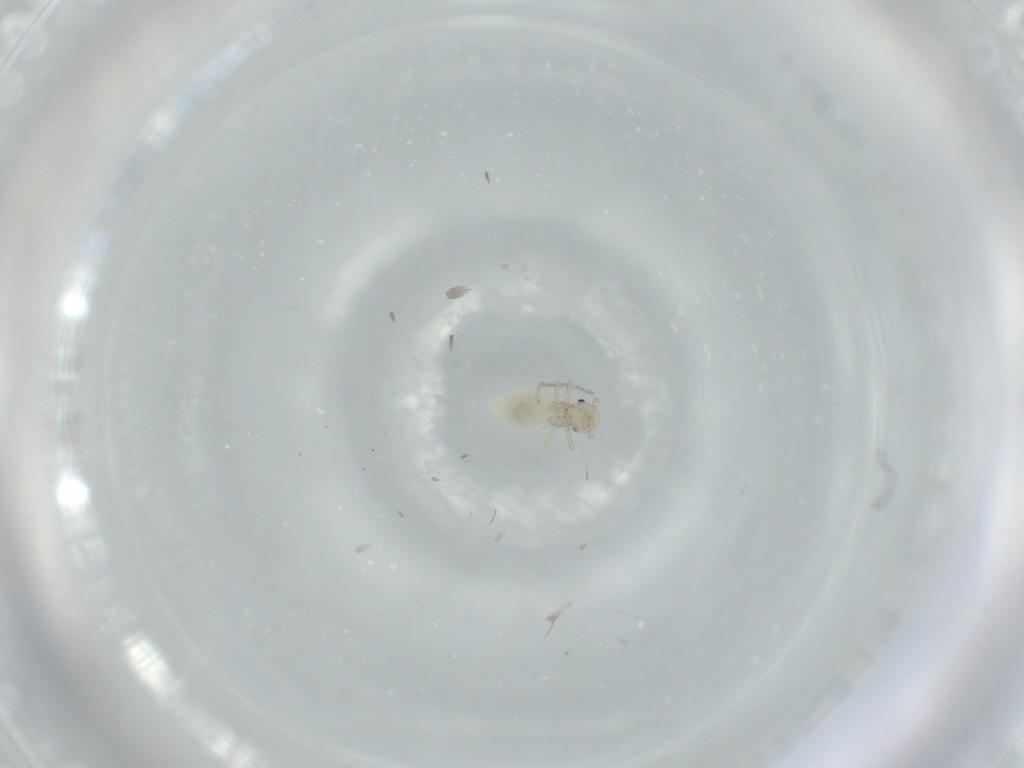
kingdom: Animalia
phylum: Arthropoda
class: Insecta
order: Psocodea
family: Amphipsocidae
